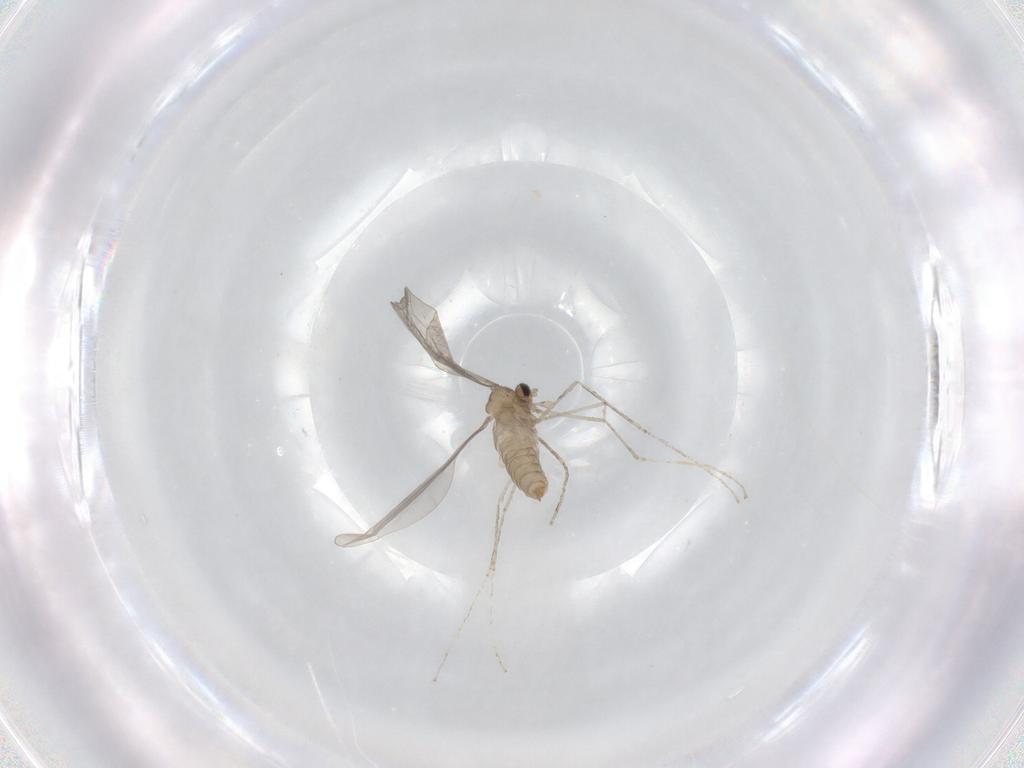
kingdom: Animalia
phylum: Arthropoda
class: Insecta
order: Diptera
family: Cecidomyiidae
